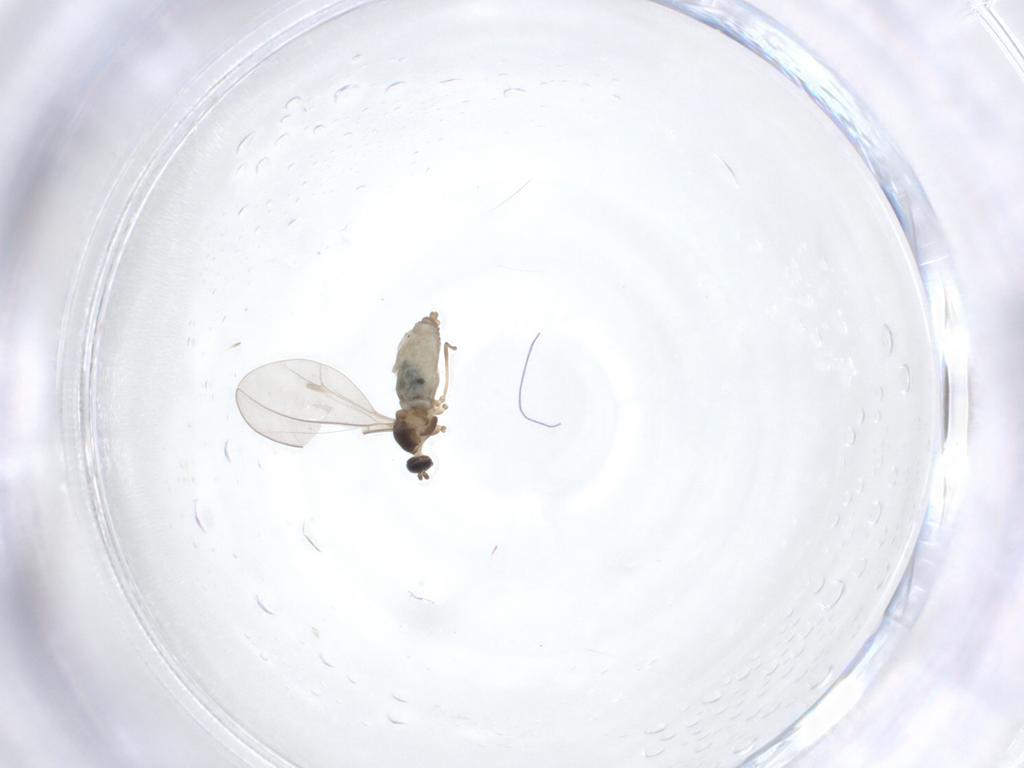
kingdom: Animalia
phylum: Arthropoda
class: Insecta
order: Diptera
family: Cecidomyiidae
